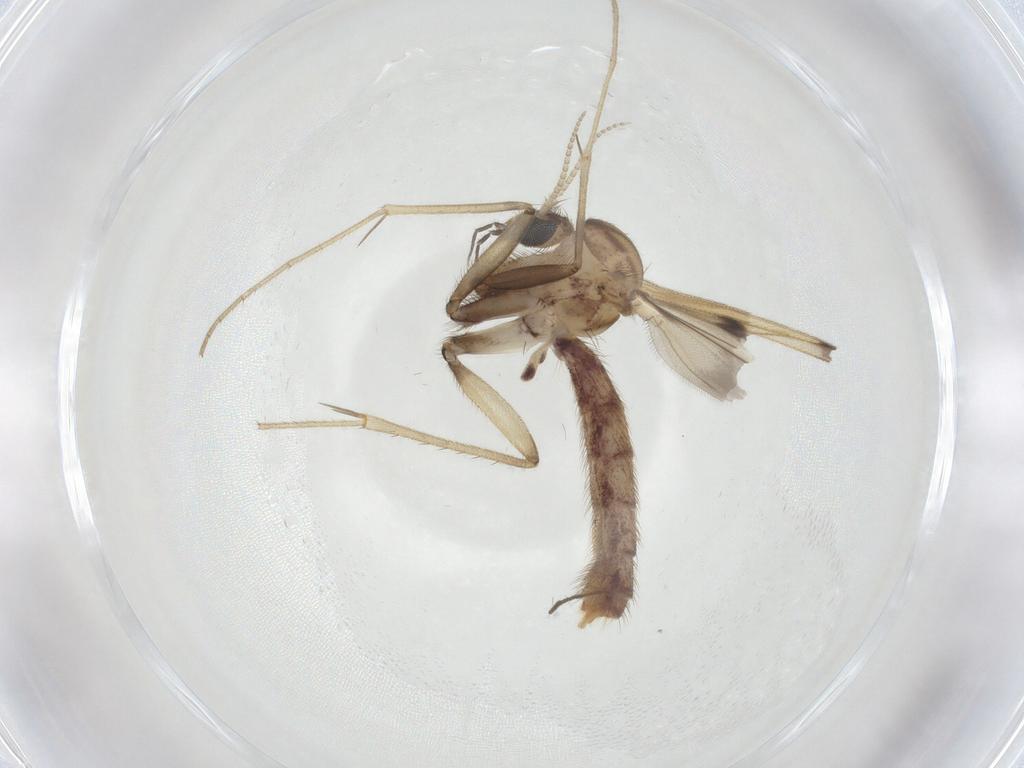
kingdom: Animalia
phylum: Arthropoda
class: Insecta
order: Diptera
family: Mycetophilidae
